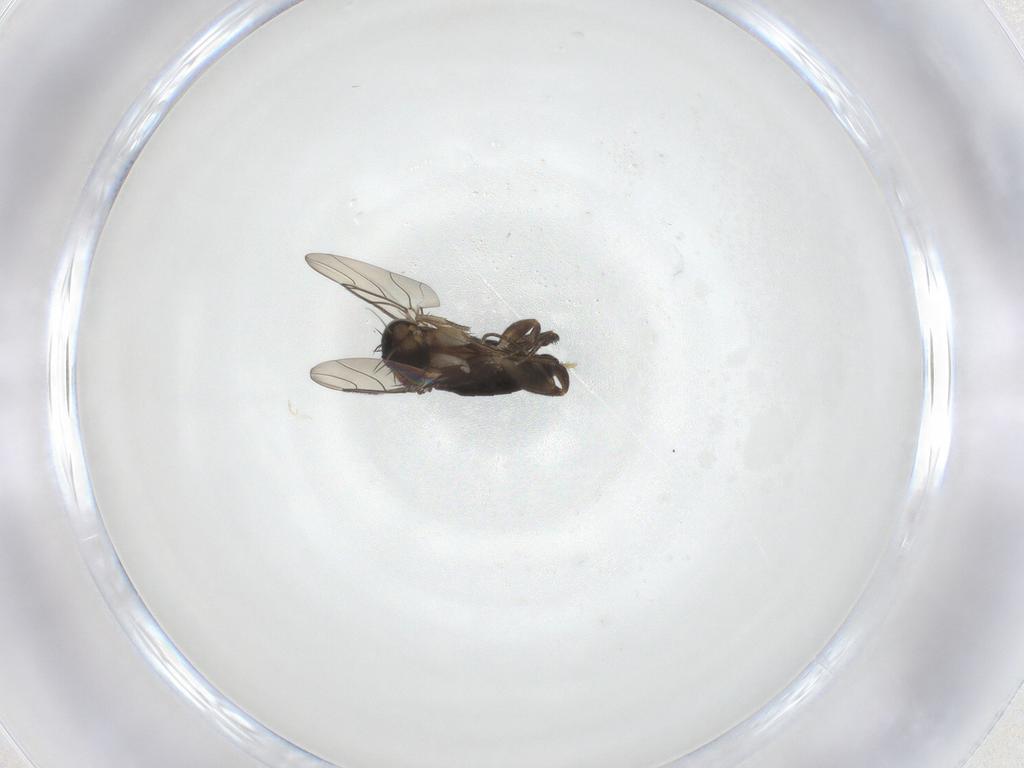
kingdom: Animalia
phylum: Arthropoda
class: Insecta
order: Diptera
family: Phoridae
